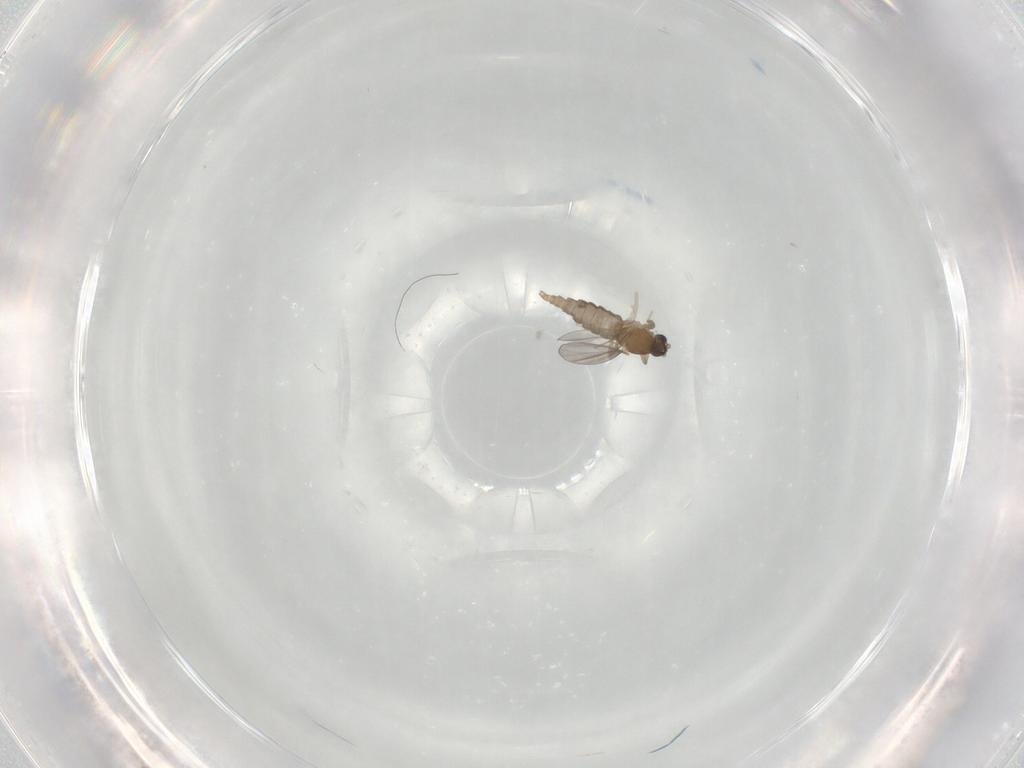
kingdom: Animalia
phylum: Arthropoda
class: Insecta
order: Diptera
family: Cecidomyiidae
